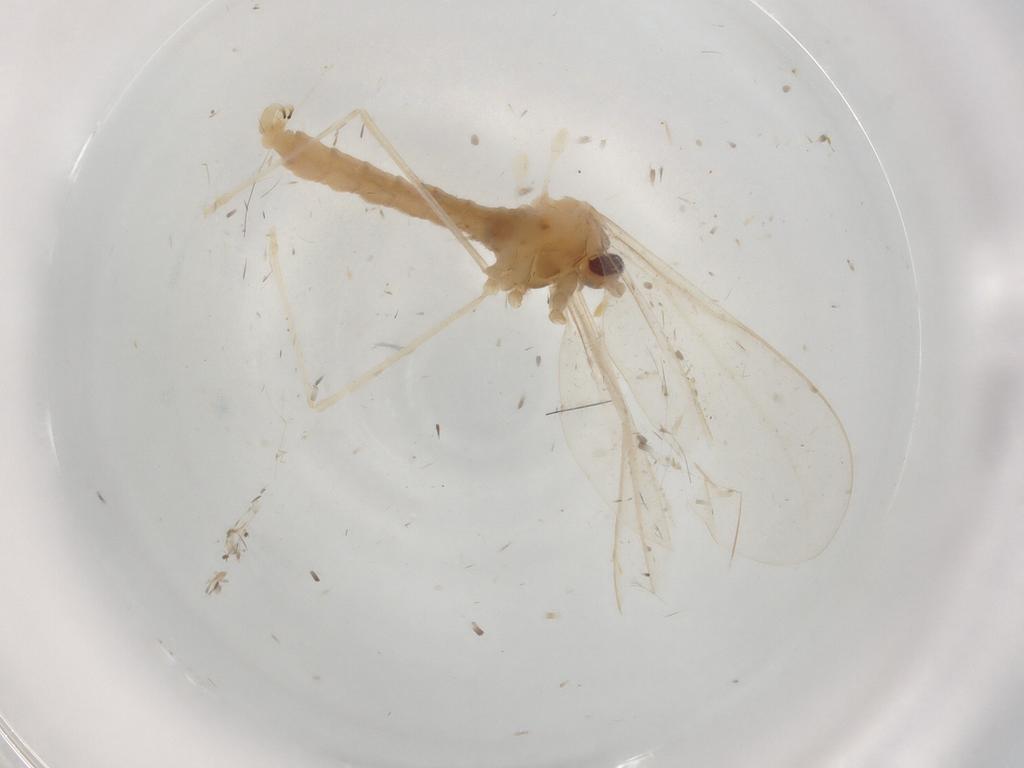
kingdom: Animalia
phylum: Arthropoda
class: Insecta
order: Diptera
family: Cecidomyiidae
